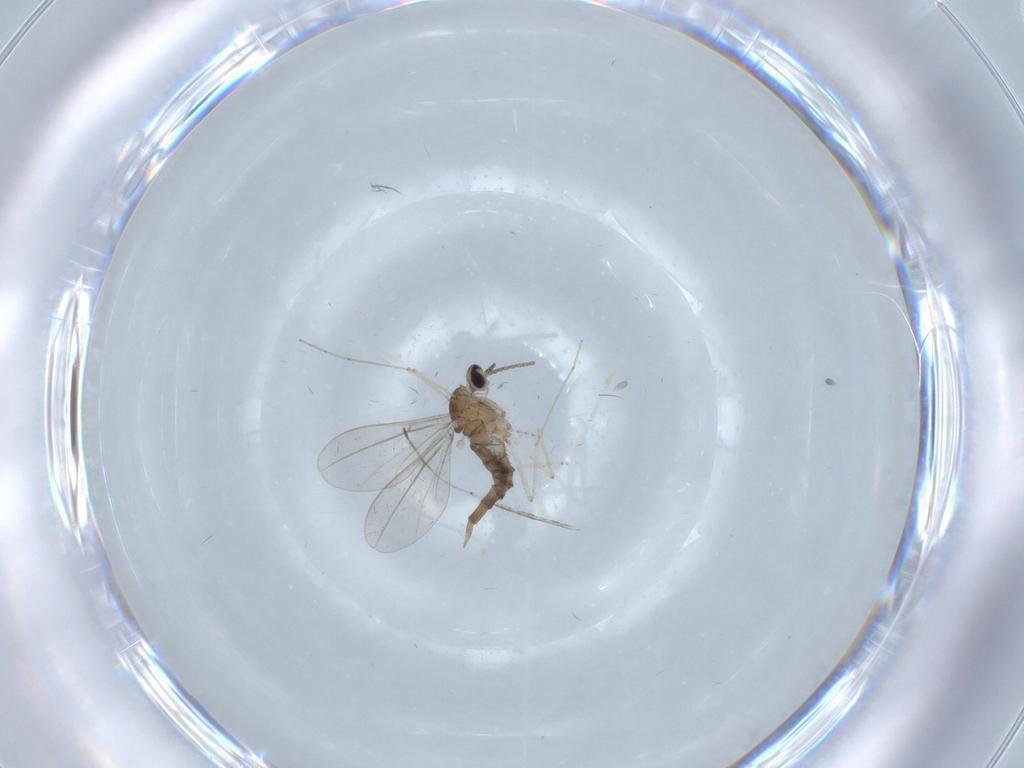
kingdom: Animalia
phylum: Arthropoda
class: Insecta
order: Diptera
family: Cecidomyiidae
